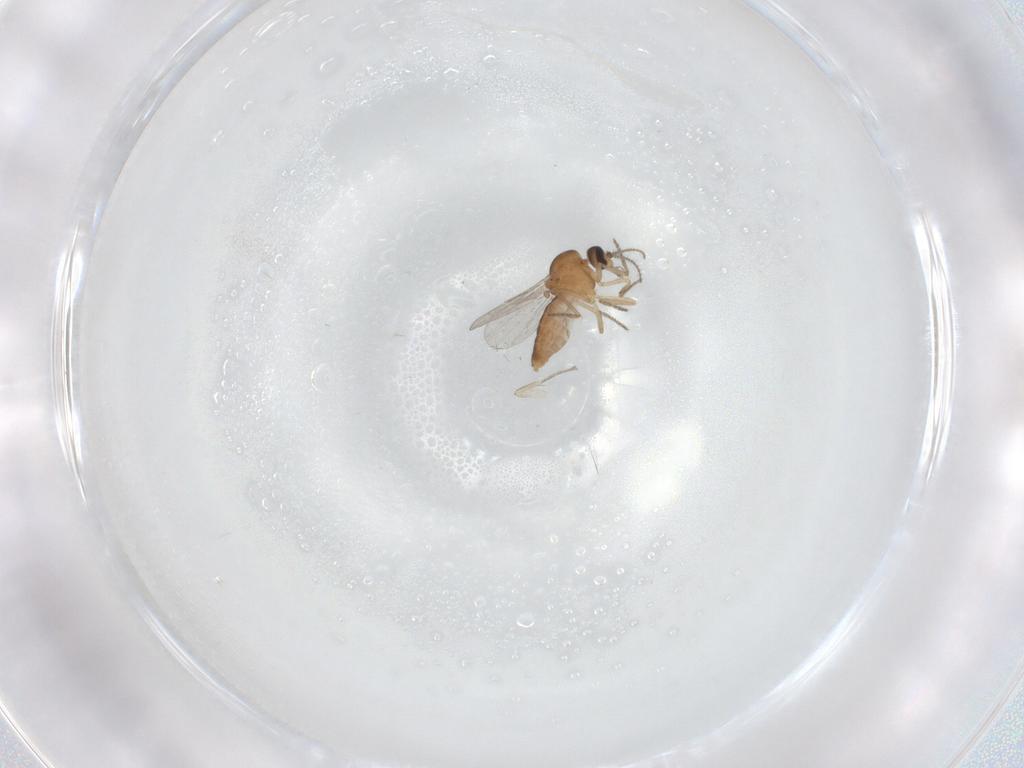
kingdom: Animalia
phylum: Arthropoda
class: Insecta
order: Diptera
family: Ceratopogonidae
